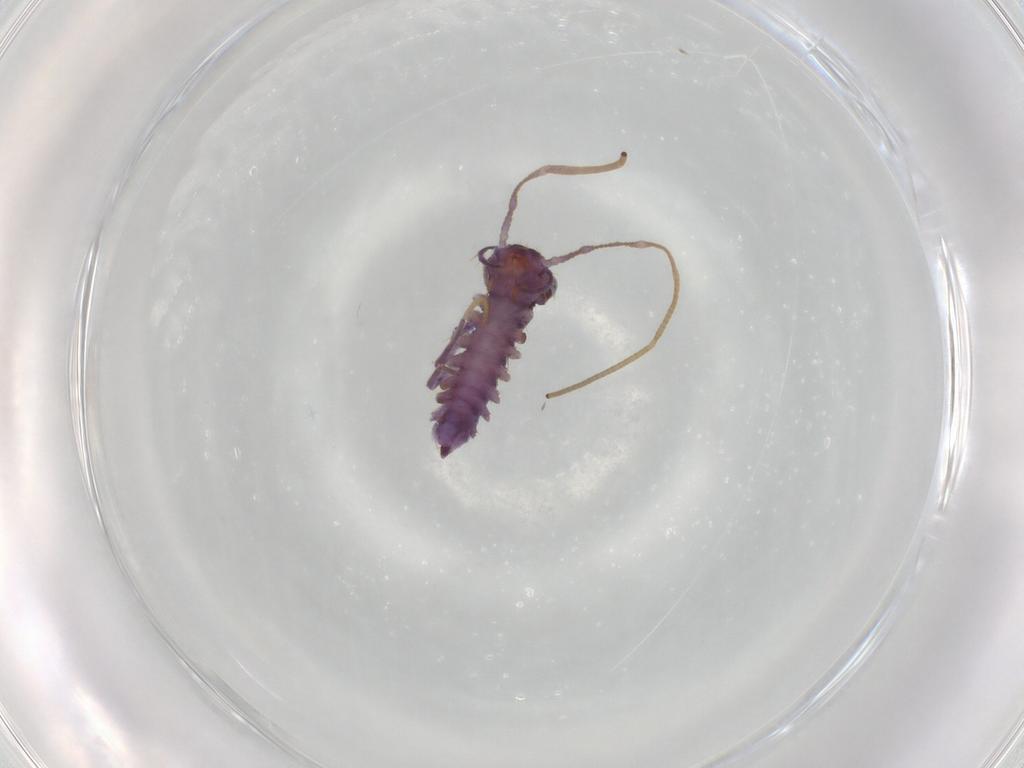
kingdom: Animalia
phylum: Arthropoda
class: Chilopoda
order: Scutigeromorpha
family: Scutigeridae
